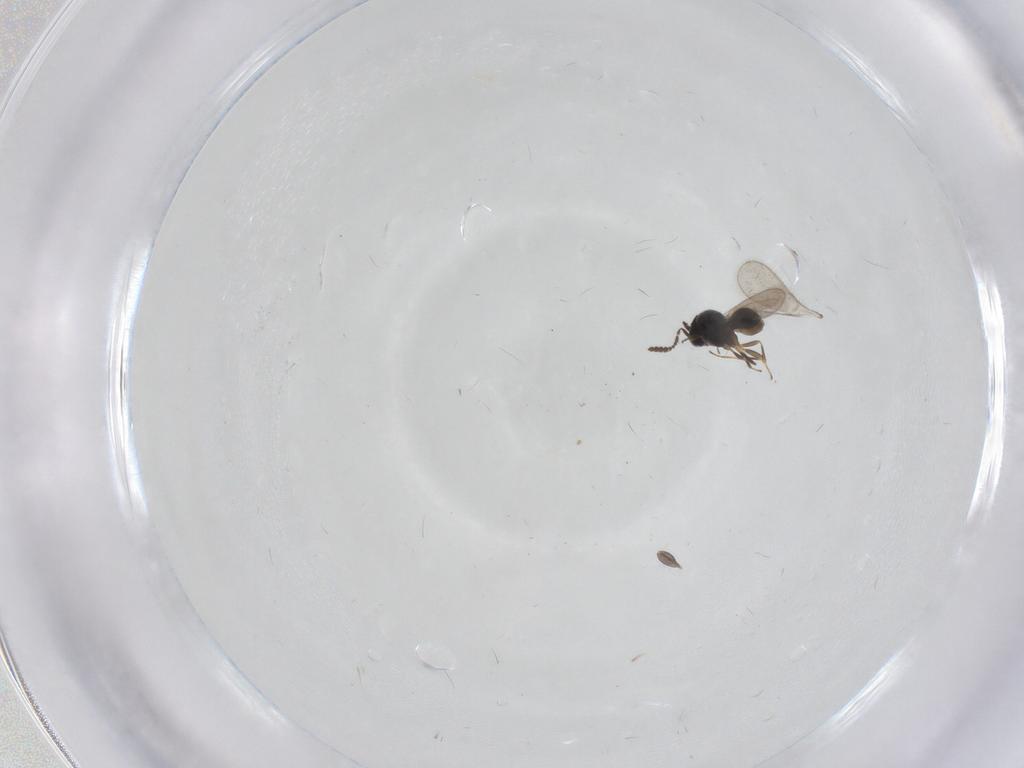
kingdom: Animalia
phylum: Arthropoda
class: Insecta
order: Hymenoptera
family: Scelionidae
